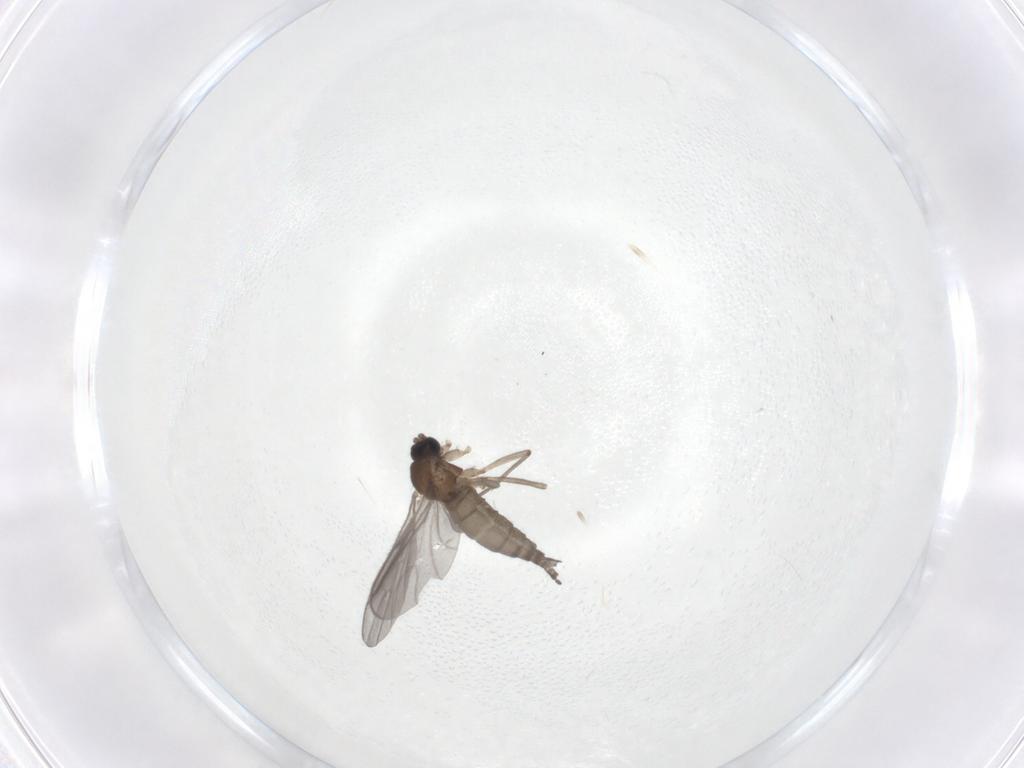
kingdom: Animalia
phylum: Arthropoda
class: Insecta
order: Diptera
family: Sciaridae
